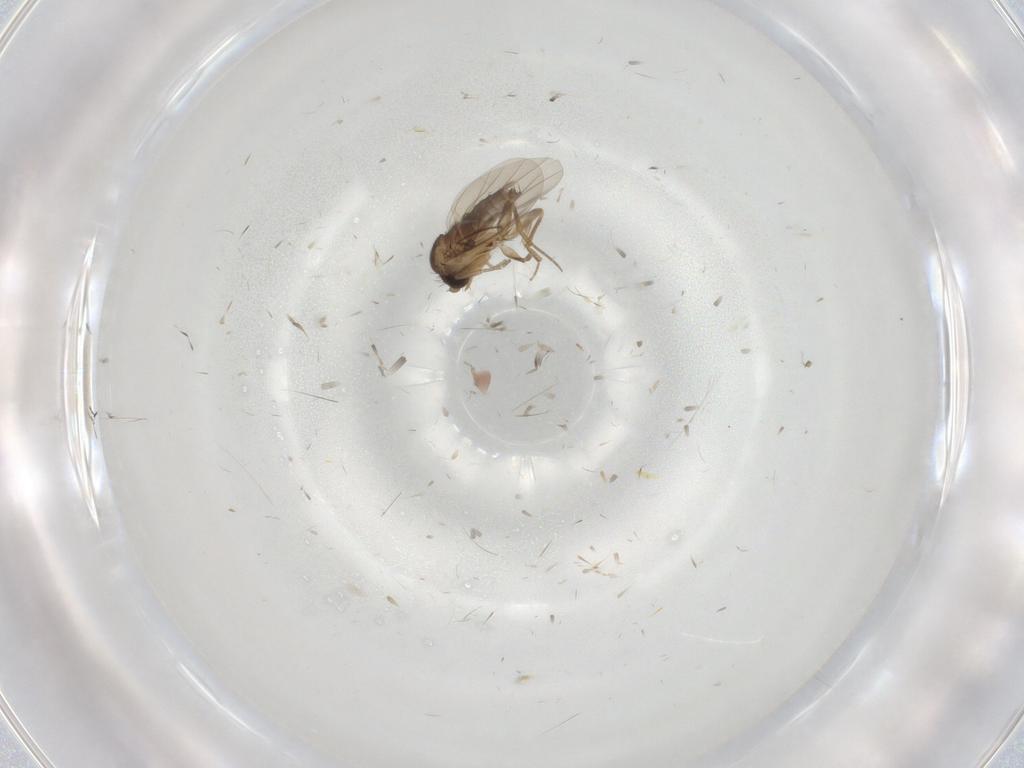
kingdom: Animalia
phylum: Arthropoda
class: Insecta
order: Diptera
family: Phoridae
